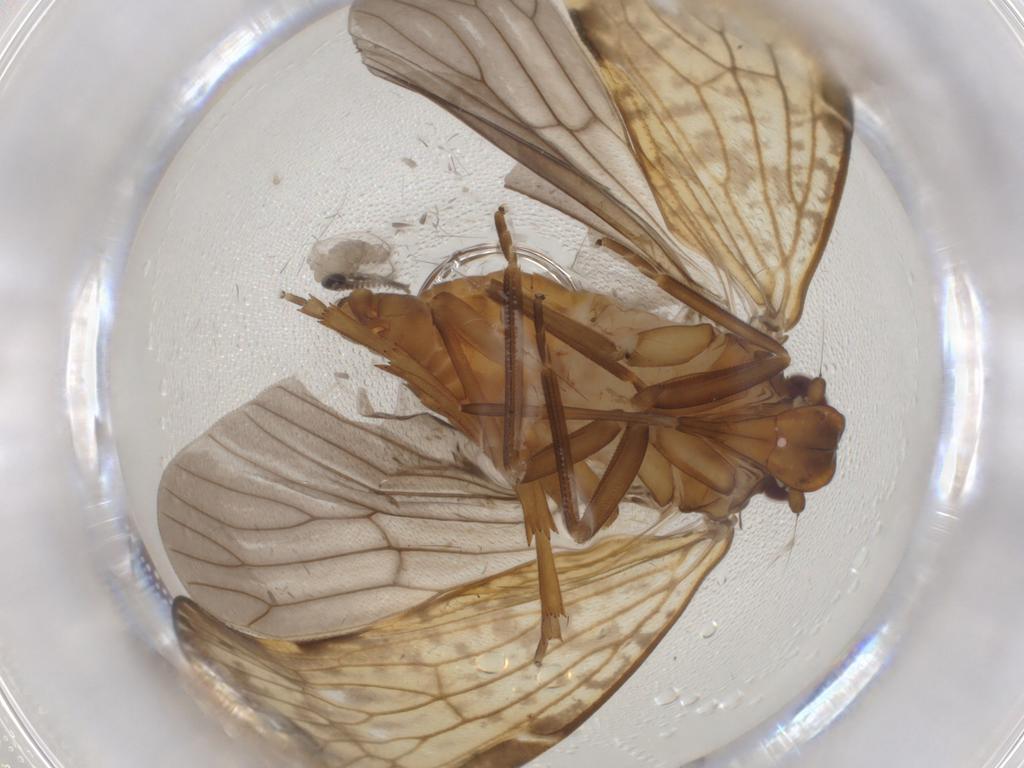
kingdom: Animalia
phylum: Arthropoda
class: Insecta
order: Hemiptera
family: Cixiidae
